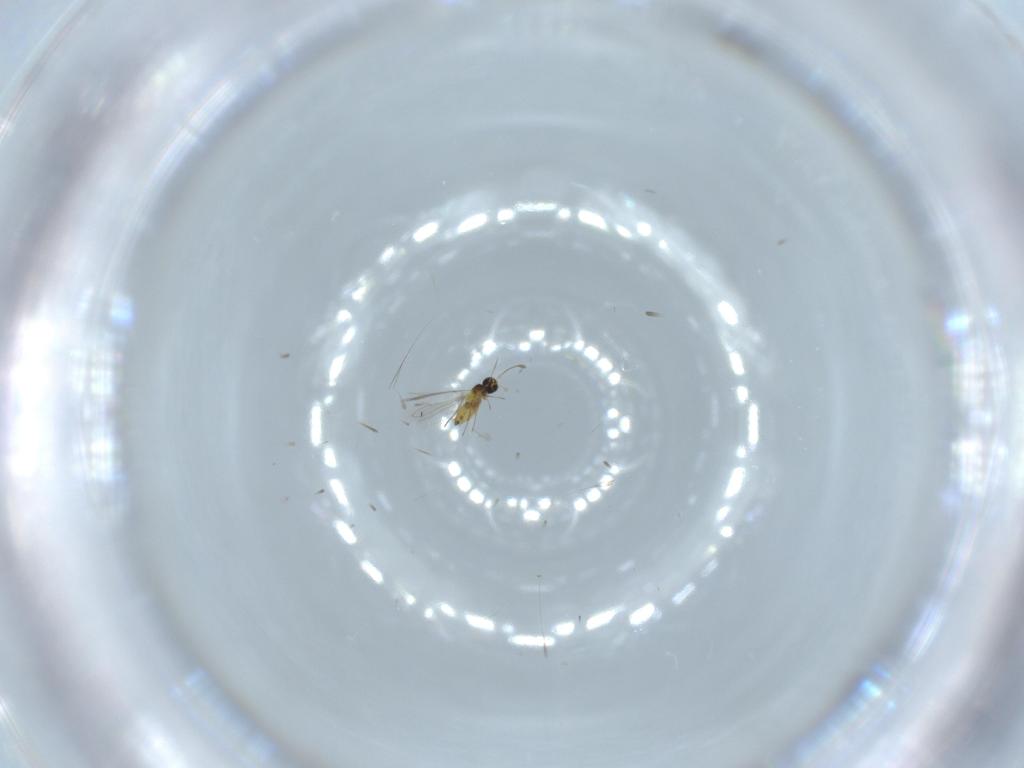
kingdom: Animalia
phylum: Arthropoda
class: Insecta
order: Hymenoptera
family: Mymaridae
